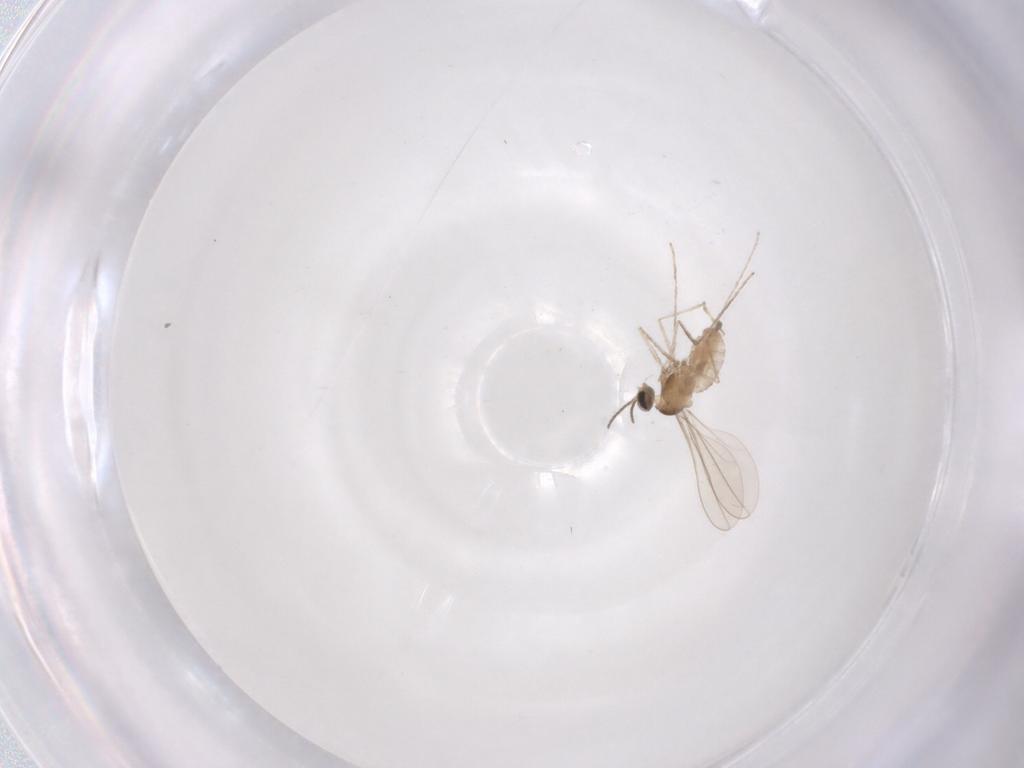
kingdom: Animalia
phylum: Arthropoda
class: Insecta
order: Diptera
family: Cecidomyiidae
